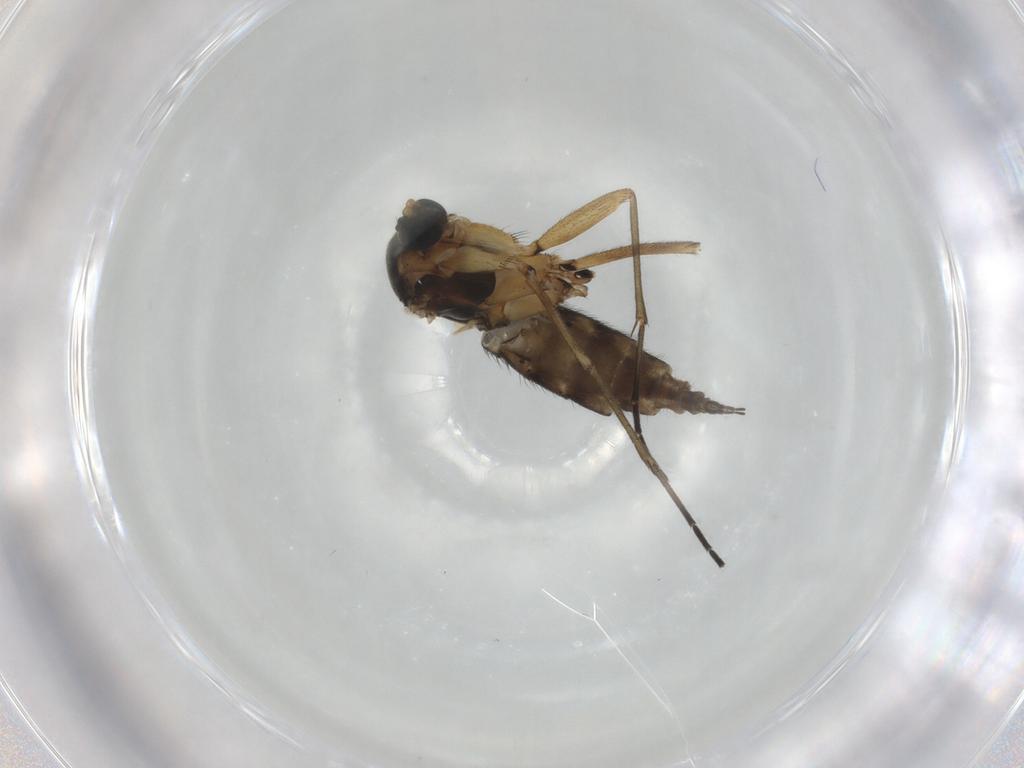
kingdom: Animalia
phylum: Arthropoda
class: Insecta
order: Diptera
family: Sciaridae
